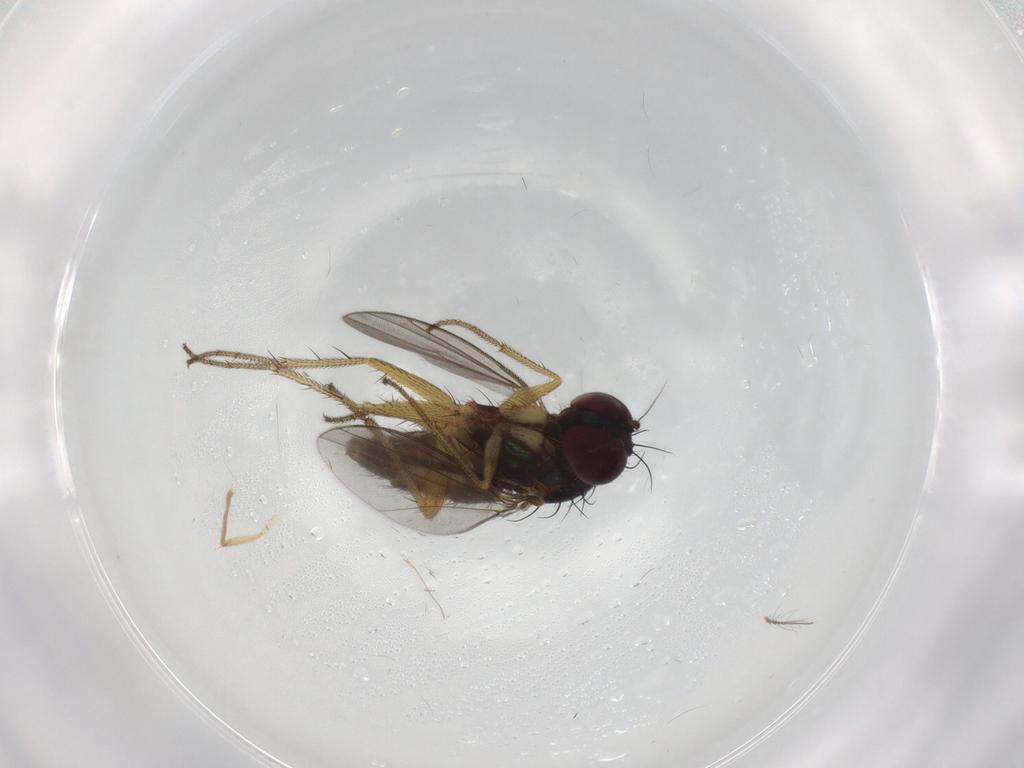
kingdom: Animalia
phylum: Arthropoda
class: Insecta
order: Diptera
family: Dolichopodidae
